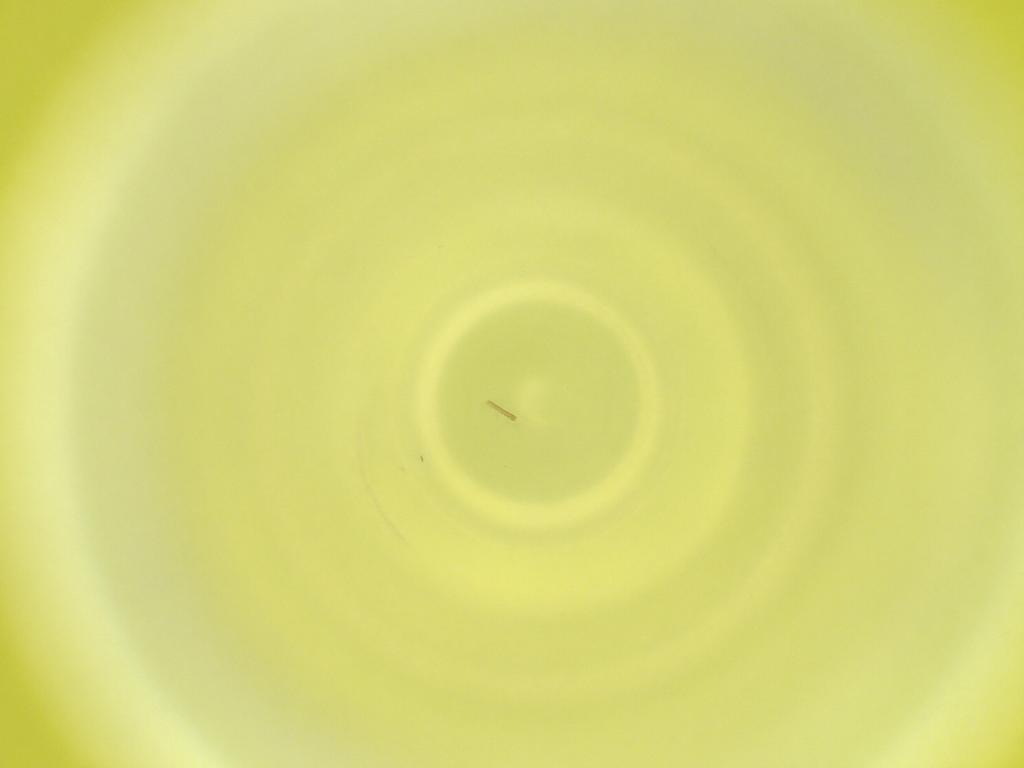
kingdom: Animalia
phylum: Arthropoda
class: Insecta
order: Diptera
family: Cecidomyiidae
